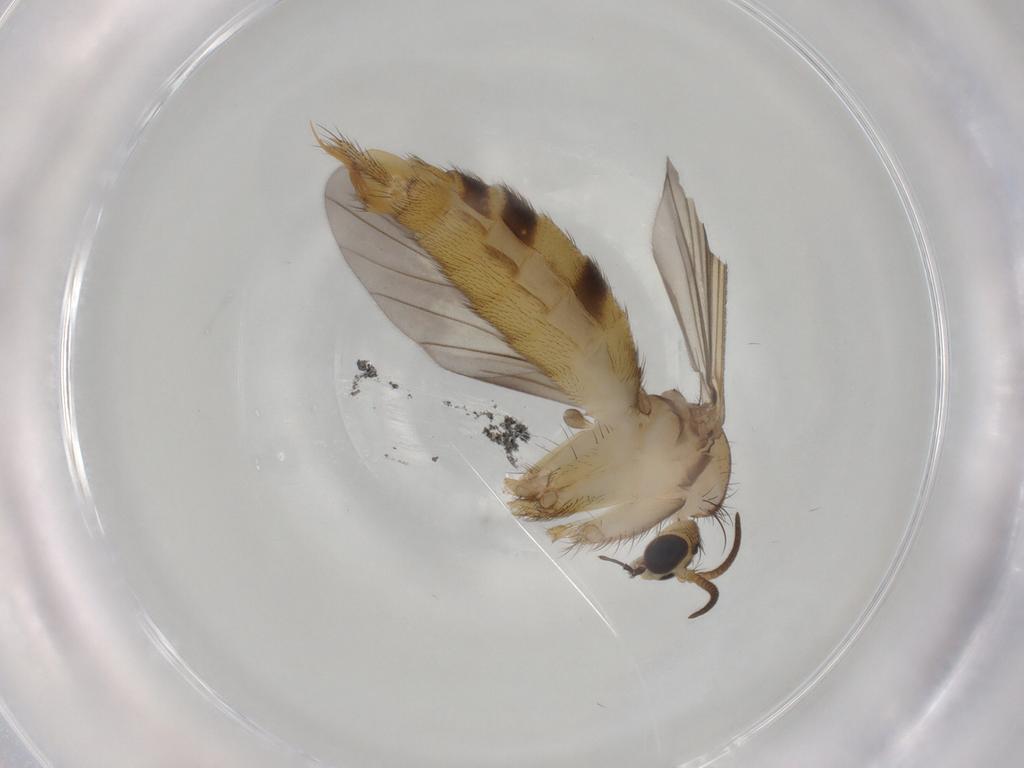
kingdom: Animalia
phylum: Arthropoda
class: Insecta
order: Diptera
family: Mycetophilidae
